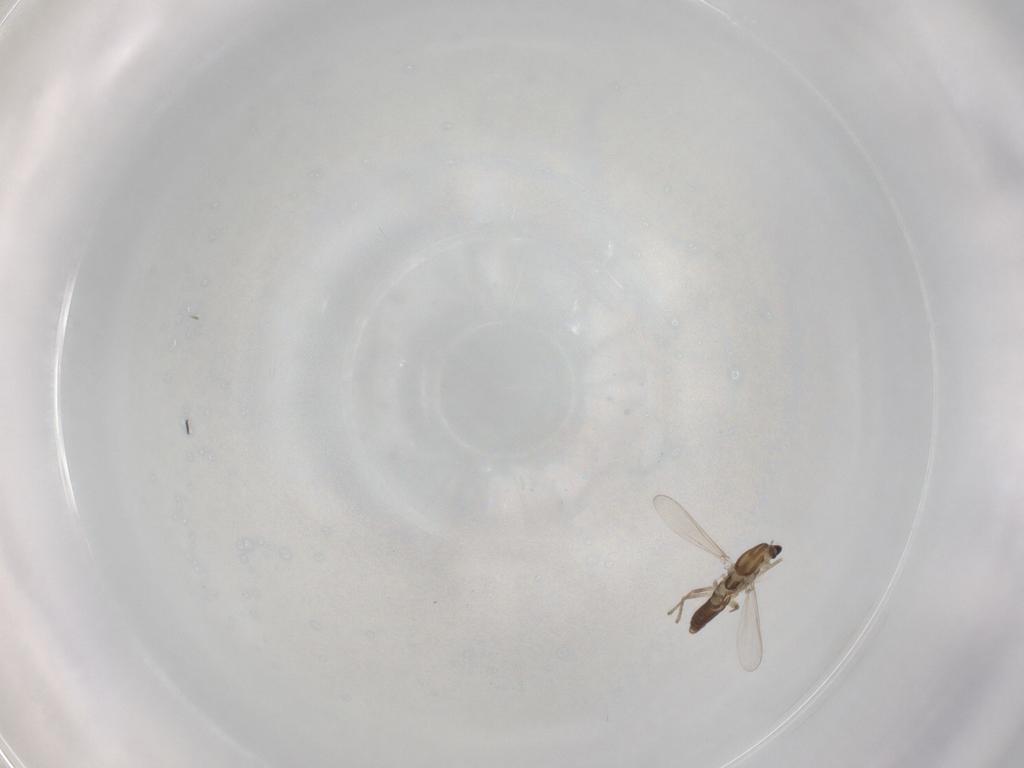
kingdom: Animalia
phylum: Arthropoda
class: Insecta
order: Diptera
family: Chironomidae
